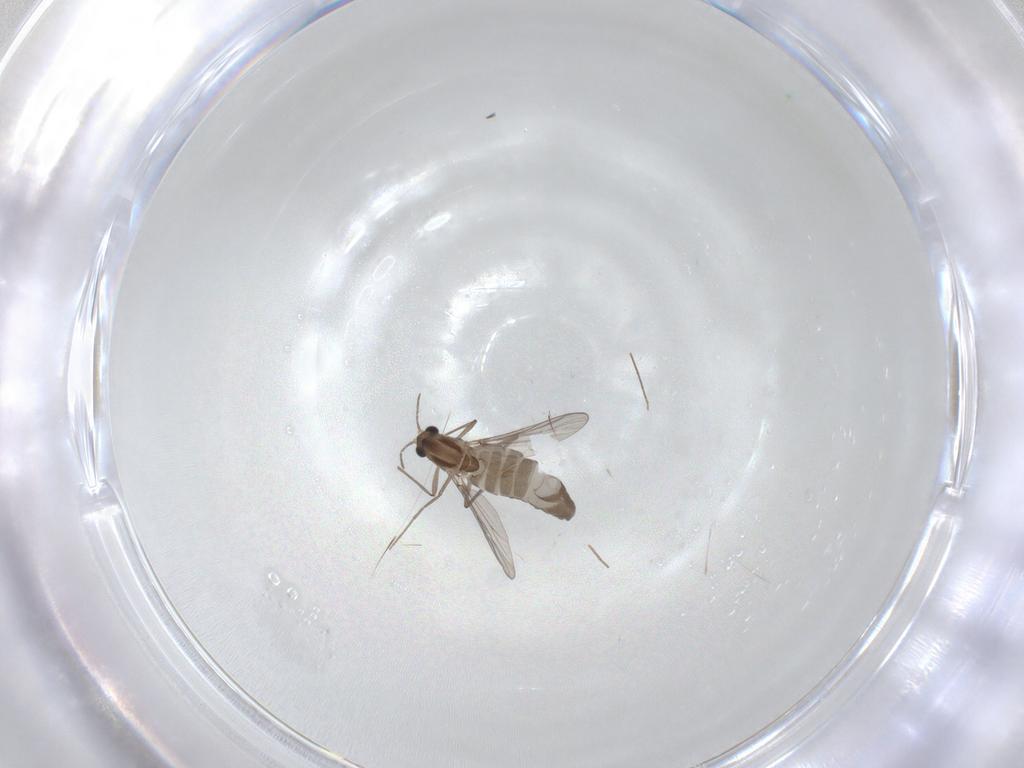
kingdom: Animalia
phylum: Arthropoda
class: Insecta
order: Diptera
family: Chironomidae
